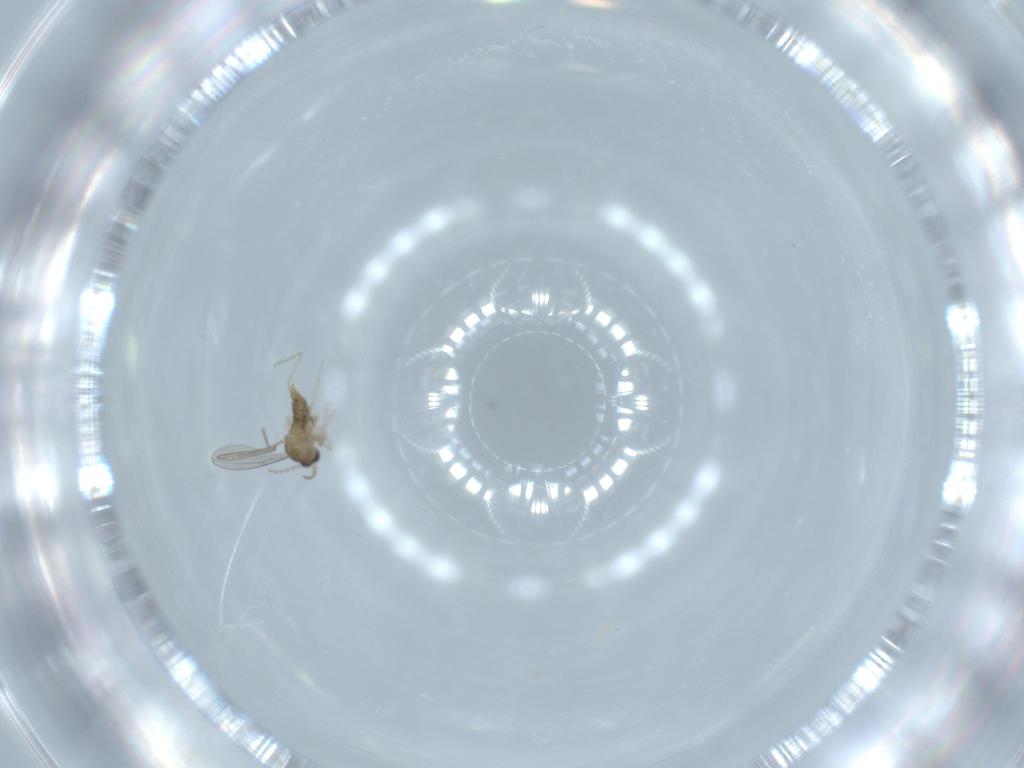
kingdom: Animalia
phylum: Arthropoda
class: Insecta
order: Diptera
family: Cecidomyiidae
